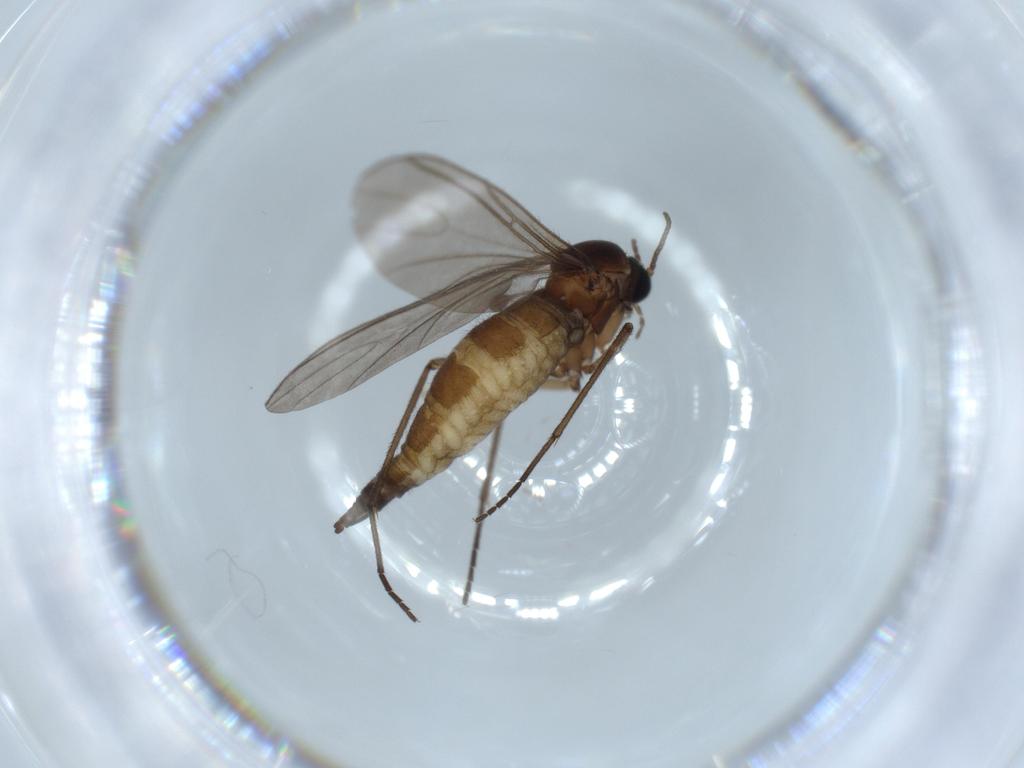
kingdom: Animalia
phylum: Arthropoda
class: Insecta
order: Diptera
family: Sciaridae
